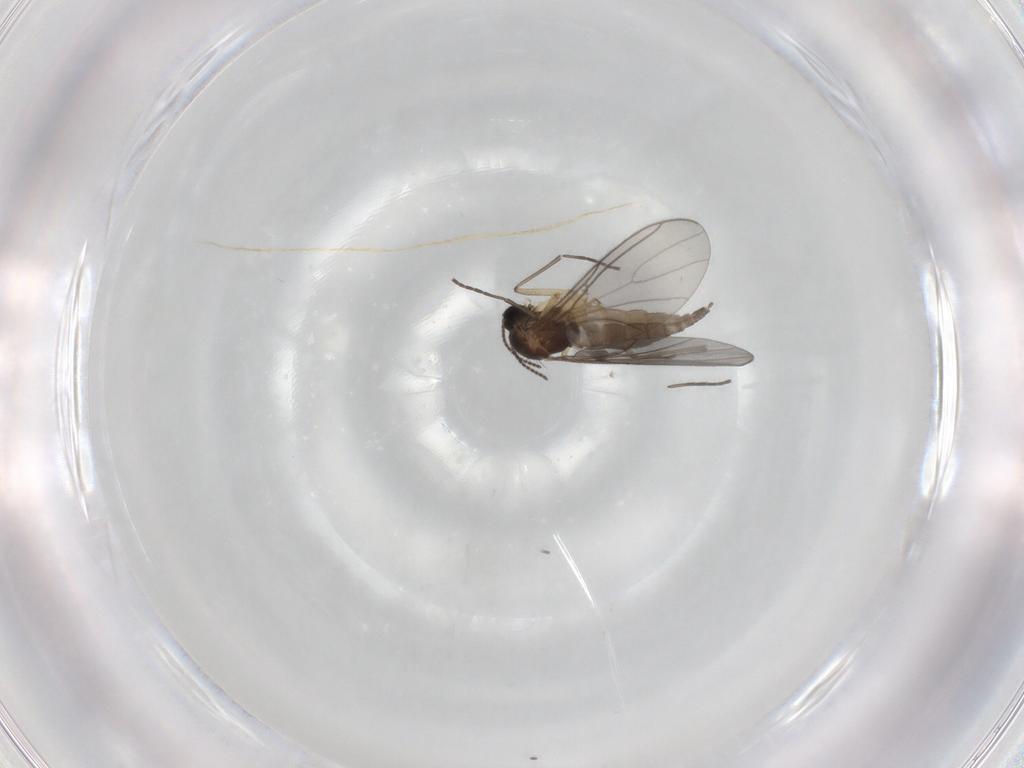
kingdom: Animalia
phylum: Arthropoda
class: Insecta
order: Diptera
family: Sciaridae
